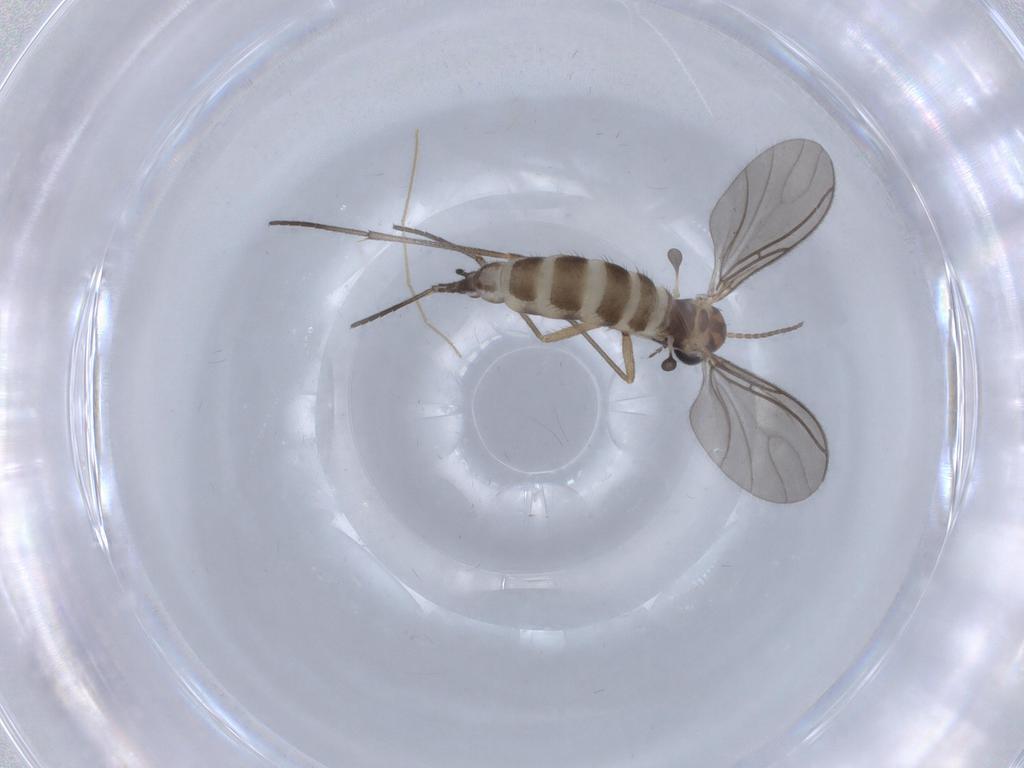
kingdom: Animalia
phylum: Arthropoda
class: Insecta
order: Diptera
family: Sciaridae
